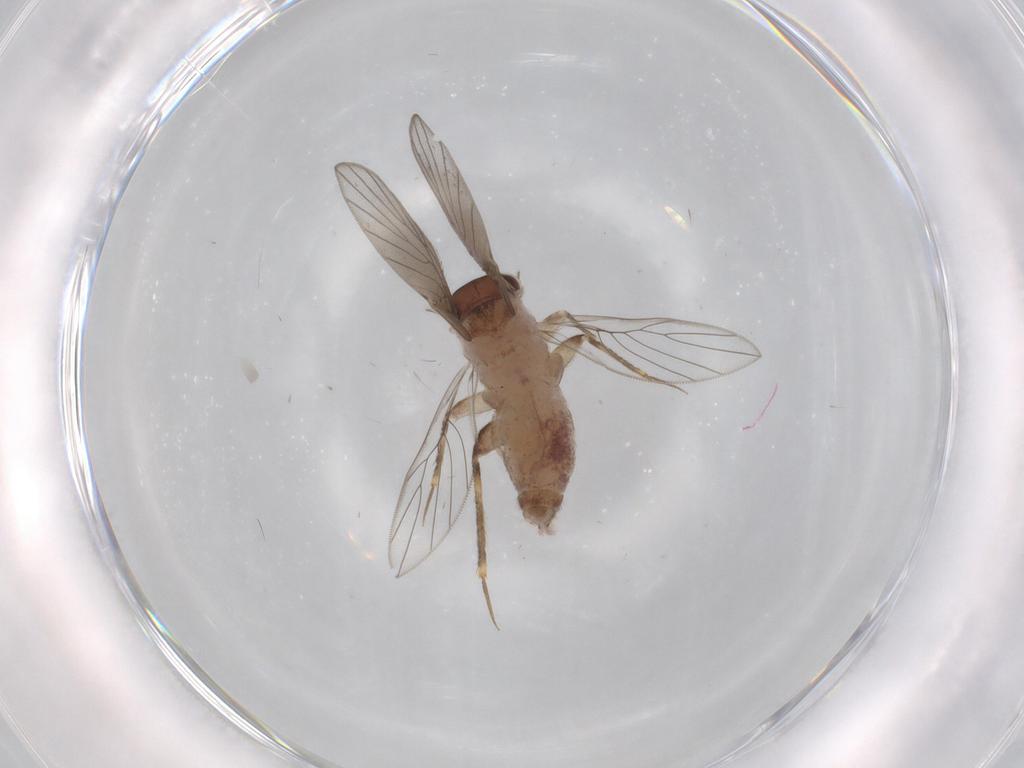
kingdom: Animalia
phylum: Arthropoda
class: Insecta
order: Psocodea
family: Lepidopsocidae
